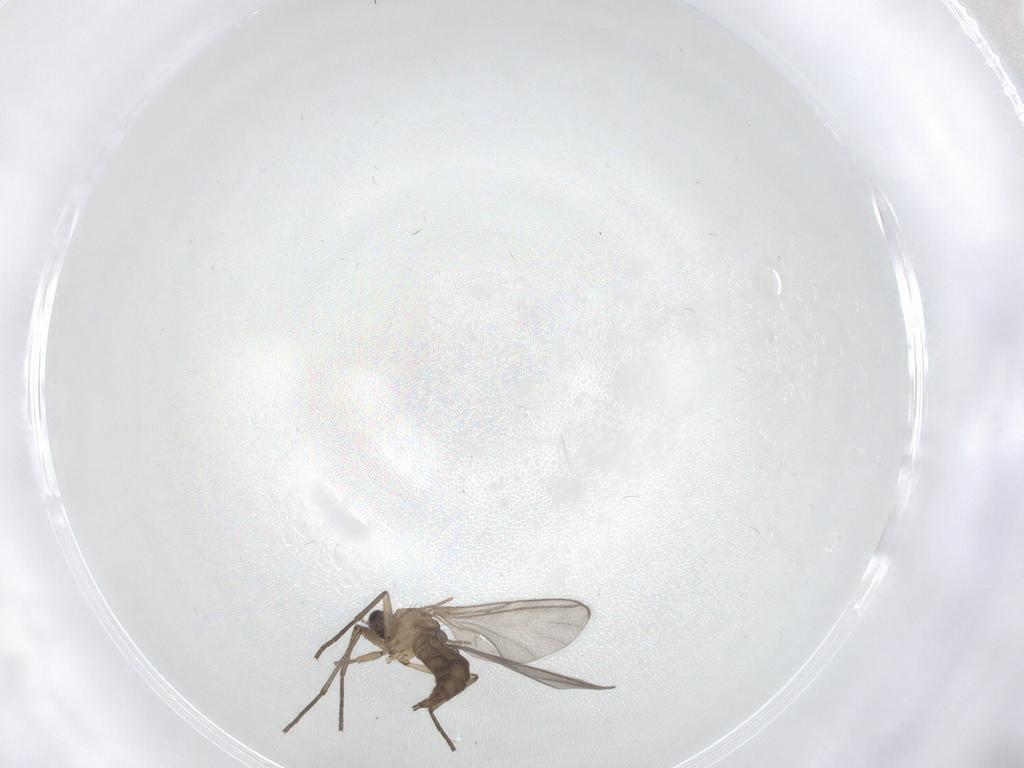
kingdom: Animalia
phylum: Arthropoda
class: Insecta
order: Diptera
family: Sciaridae
